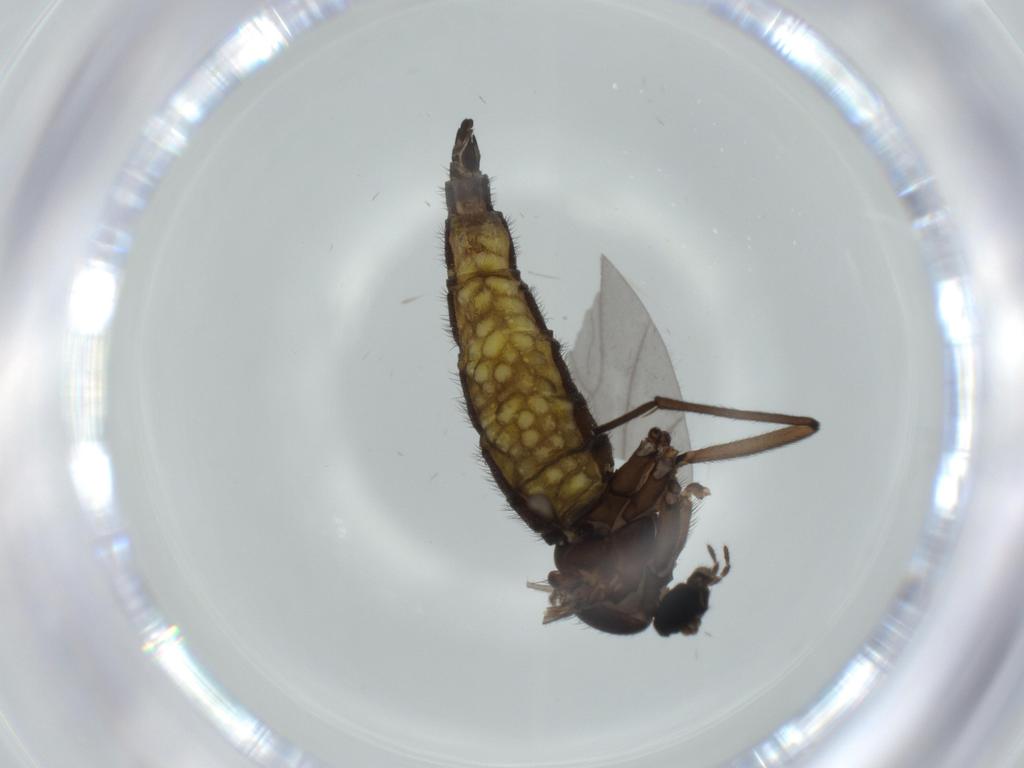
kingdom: Animalia
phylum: Arthropoda
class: Insecta
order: Diptera
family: Sciaridae
